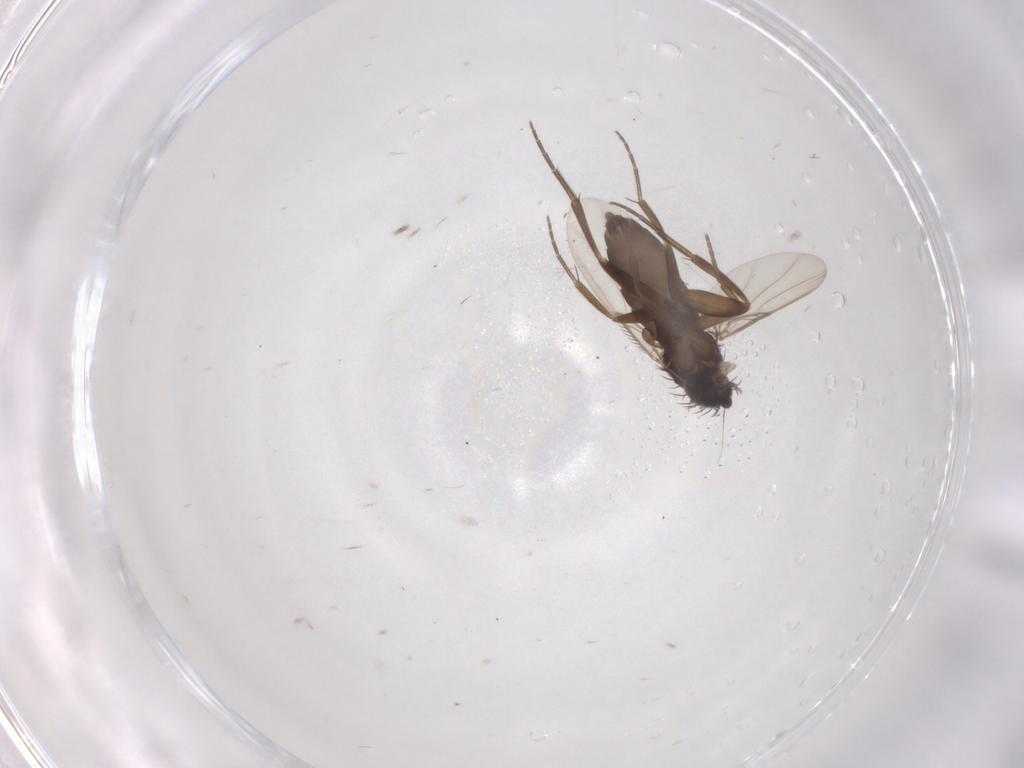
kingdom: Animalia
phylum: Arthropoda
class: Insecta
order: Diptera
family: Phoridae
